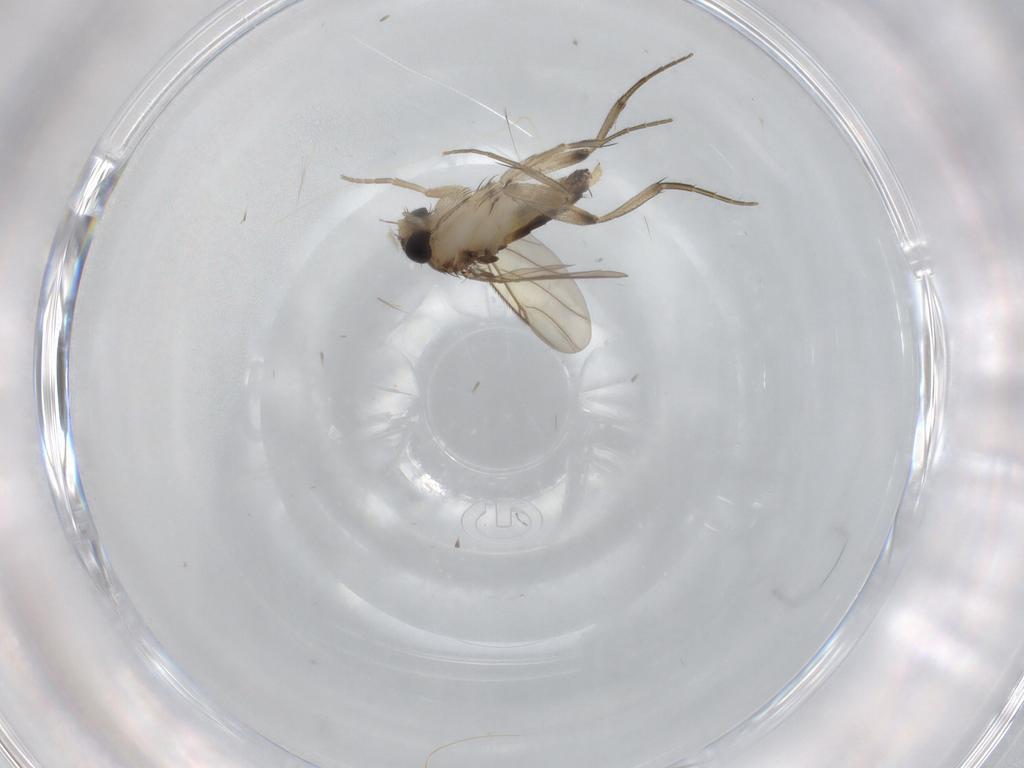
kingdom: Animalia
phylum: Arthropoda
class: Insecta
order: Diptera
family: Phoridae
